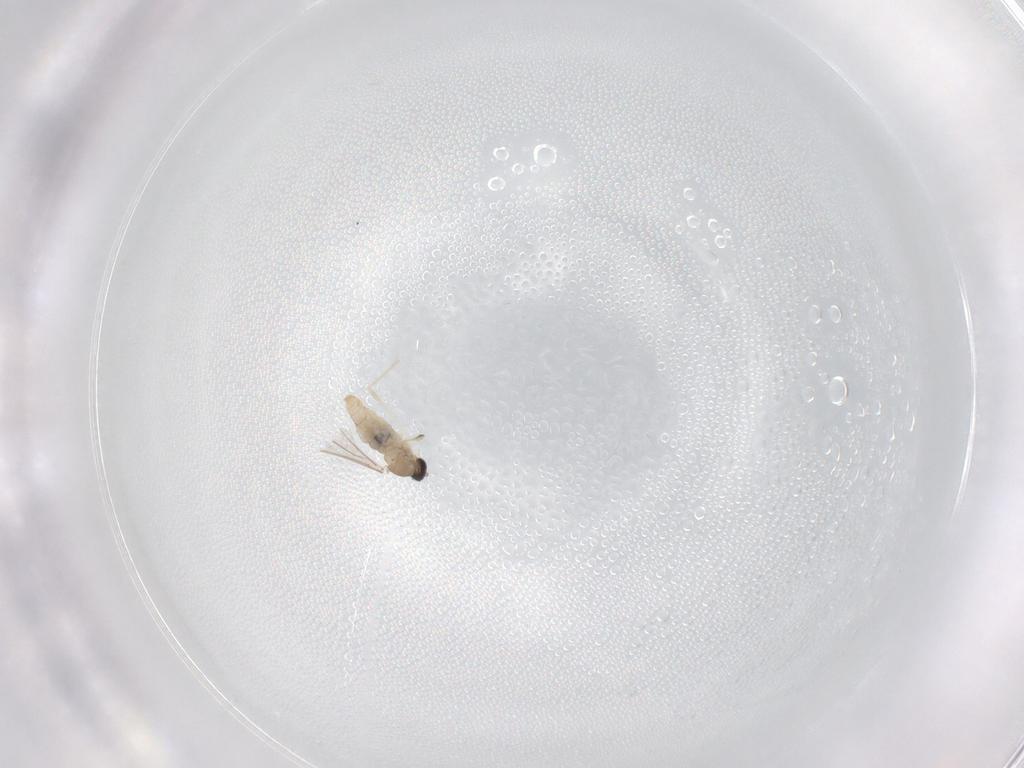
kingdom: Animalia
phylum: Arthropoda
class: Insecta
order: Diptera
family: Cecidomyiidae
